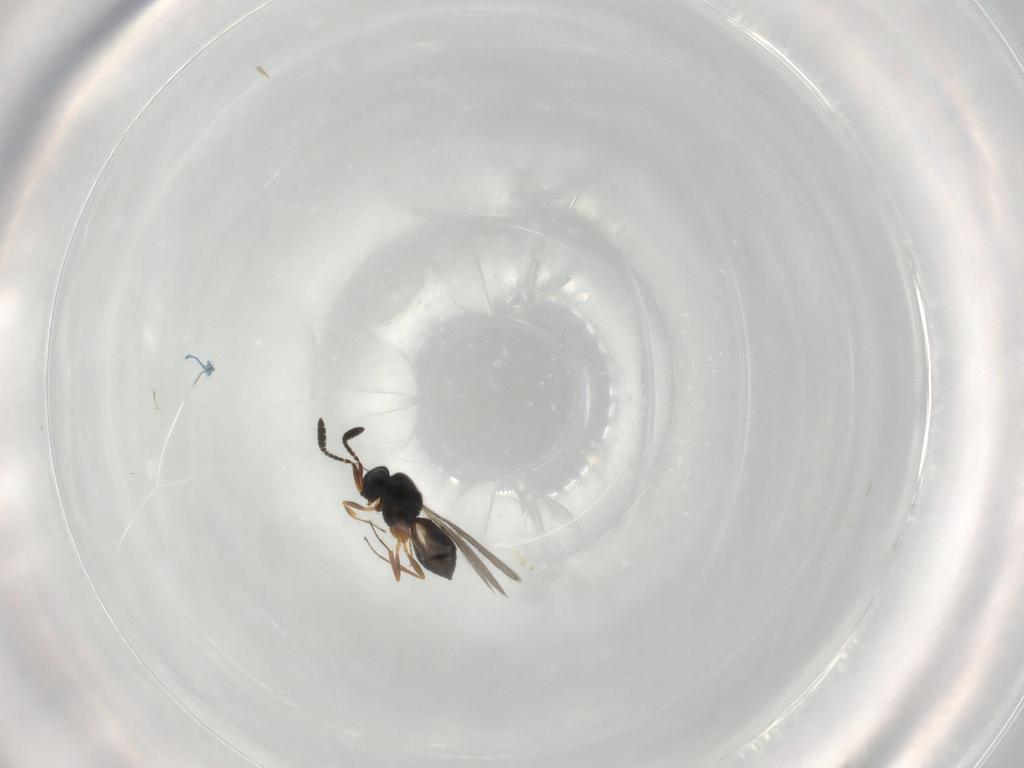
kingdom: Animalia
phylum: Arthropoda
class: Insecta
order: Hymenoptera
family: Scelionidae
